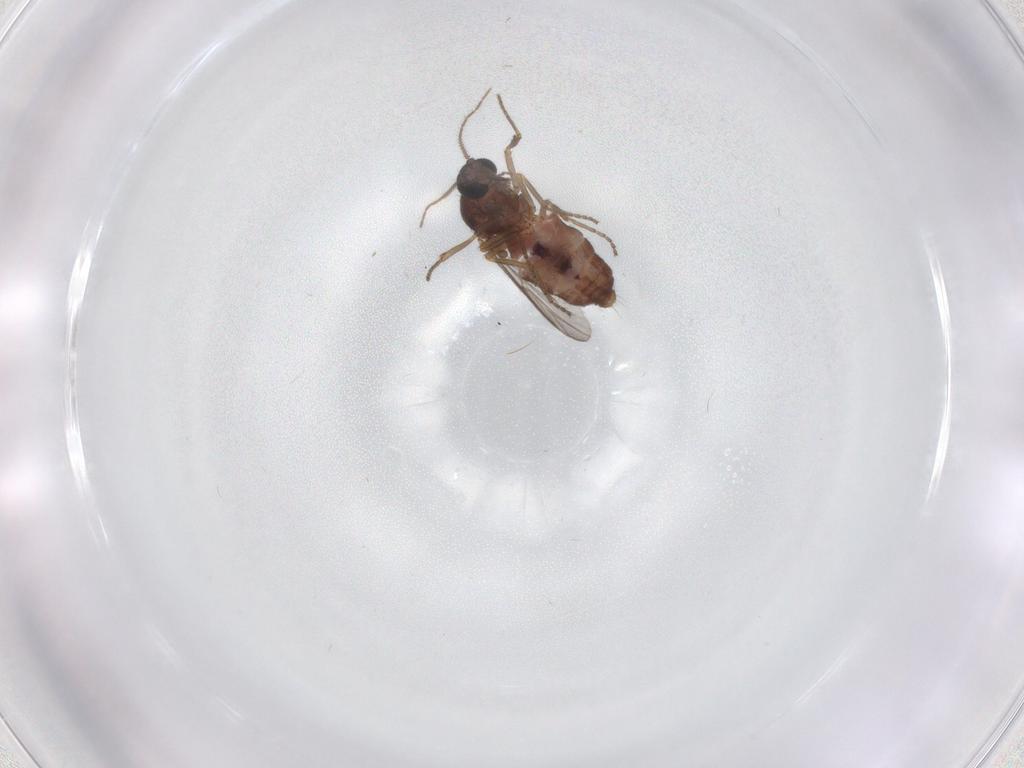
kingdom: Animalia
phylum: Arthropoda
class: Insecta
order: Diptera
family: Ceratopogonidae
